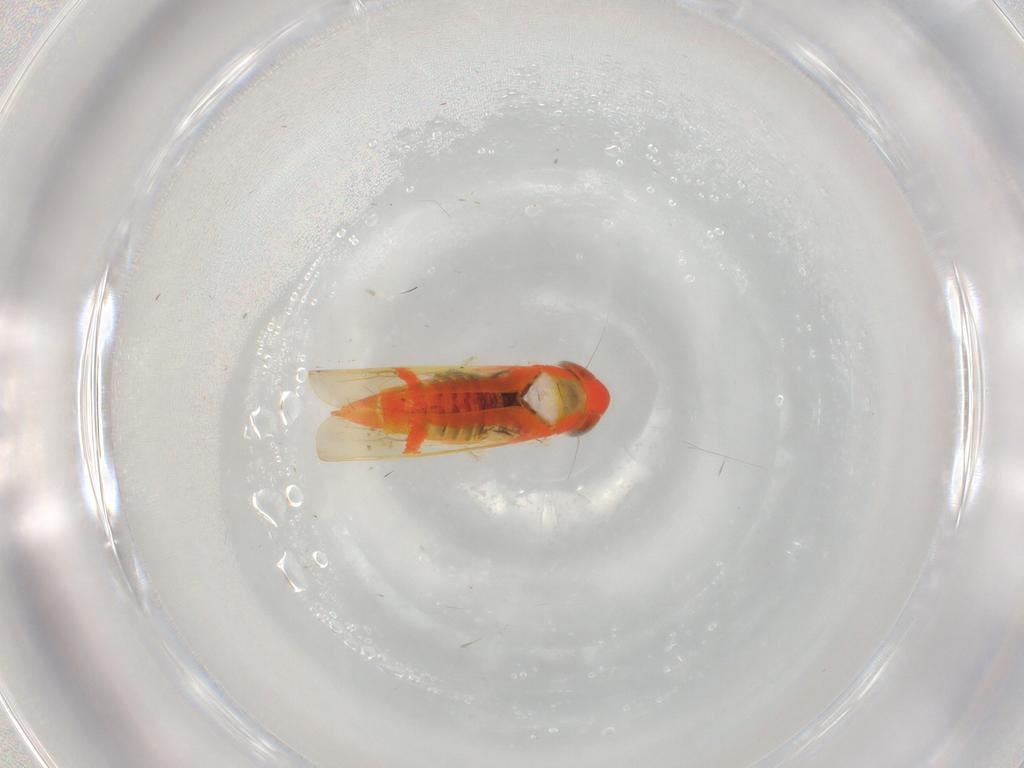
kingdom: Animalia
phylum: Arthropoda
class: Insecta
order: Hemiptera
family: Cicadellidae
